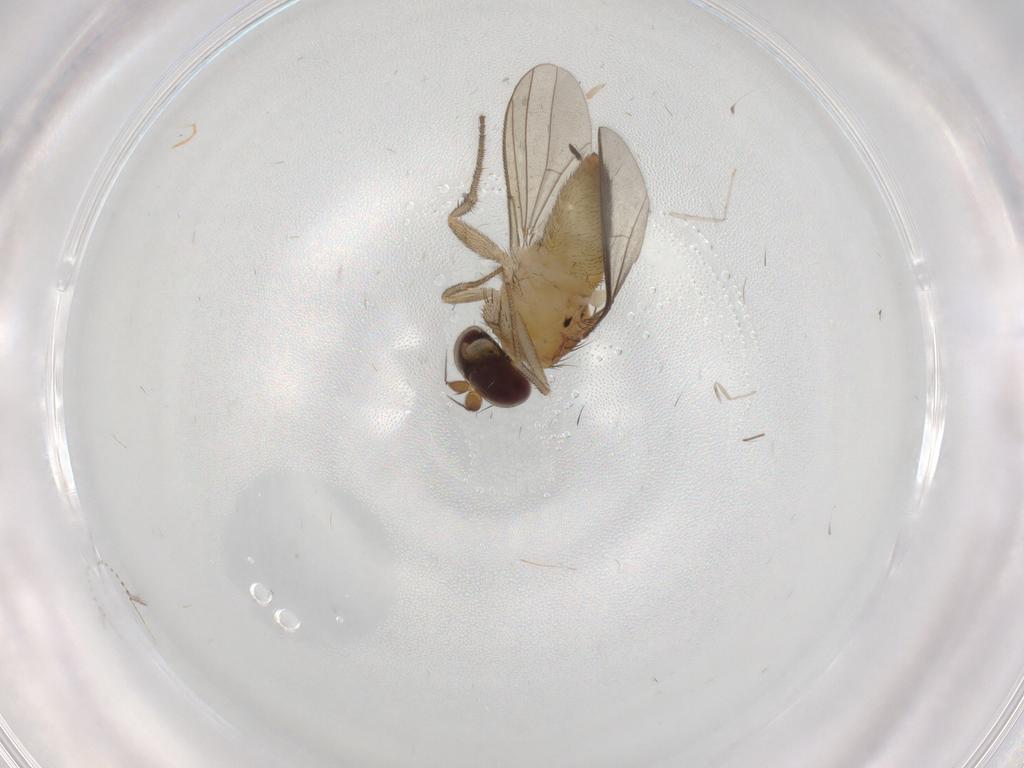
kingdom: Animalia
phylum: Arthropoda
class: Insecta
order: Diptera
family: Dolichopodidae
